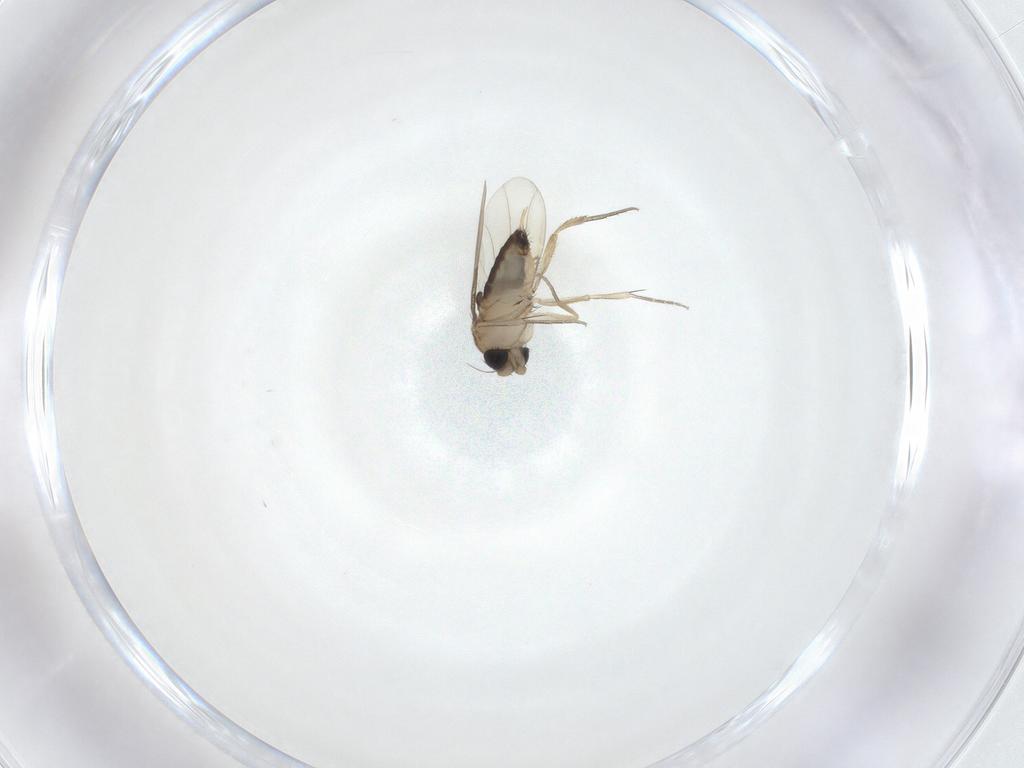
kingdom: Animalia
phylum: Arthropoda
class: Insecta
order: Diptera
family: Phoridae
